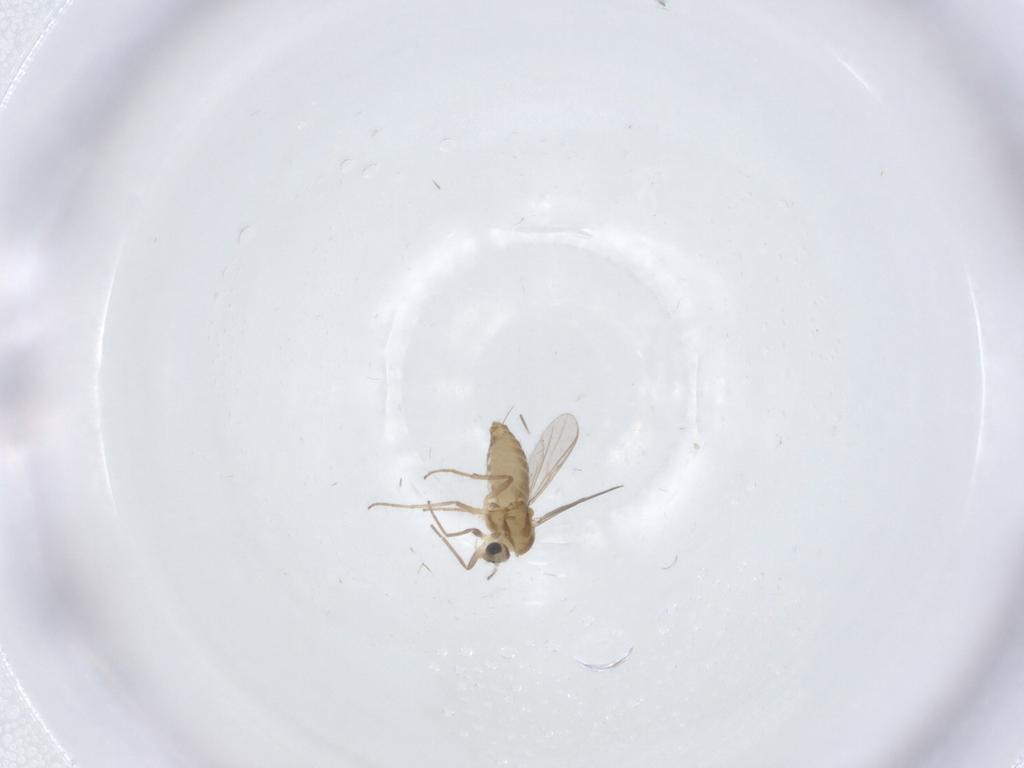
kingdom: Animalia
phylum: Arthropoda
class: Insecta
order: Diptera
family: Chironomidae
